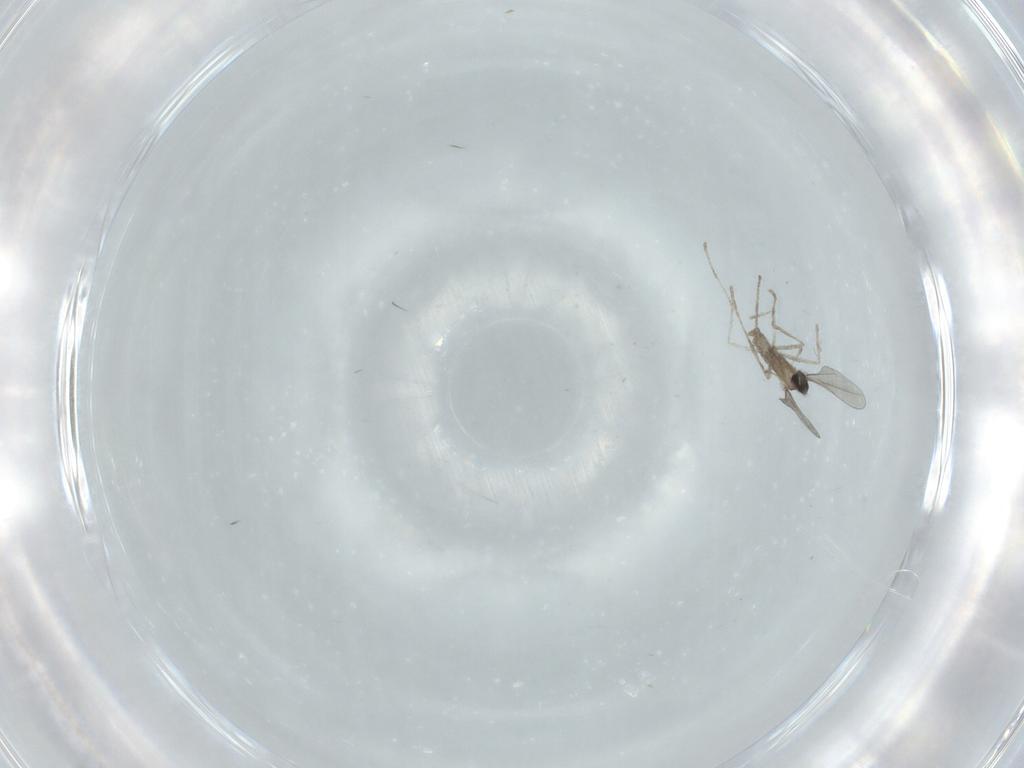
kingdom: Animalia
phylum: Arthropoda
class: Insecta
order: Diptera
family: Cecidomyiidae
